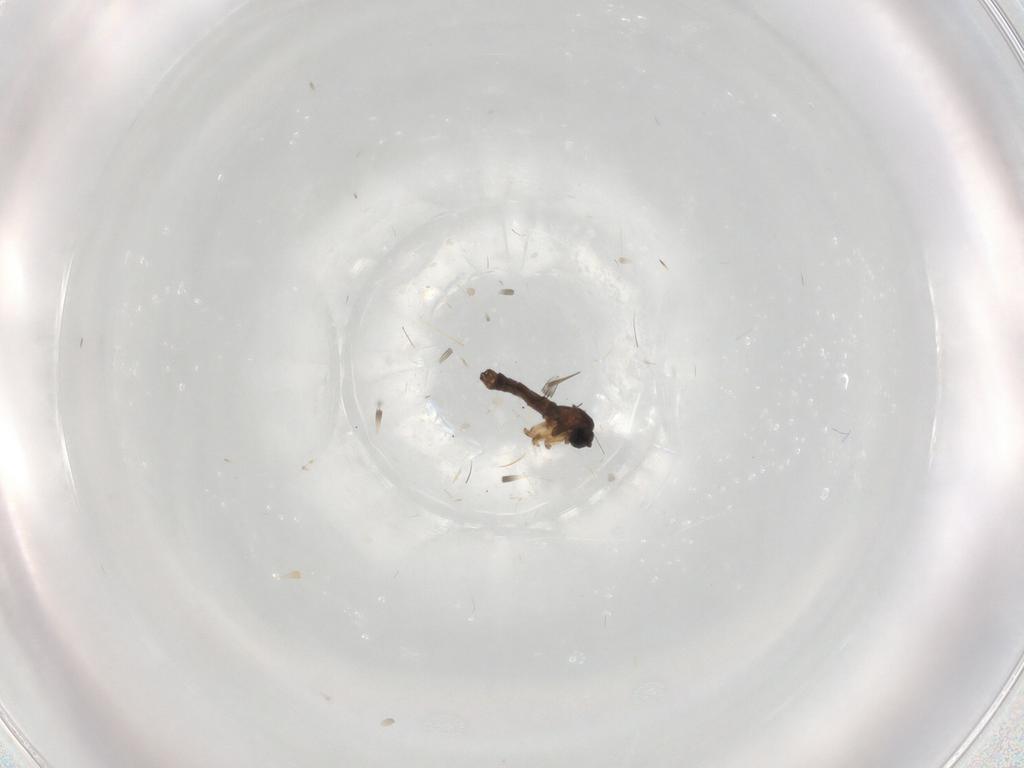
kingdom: Animalia
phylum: Arthropoda
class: Insecta
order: Diptera
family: Sciaridae
